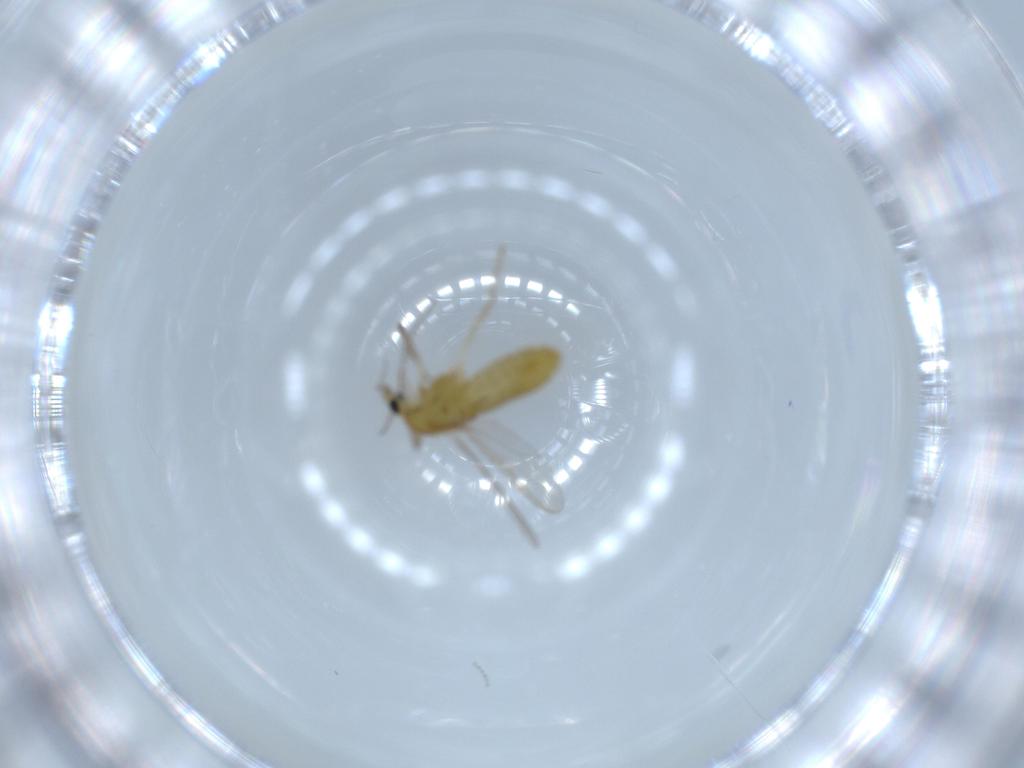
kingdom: Animalia
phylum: Arthropoda
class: Insecta
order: Diptera
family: Chironomidae
